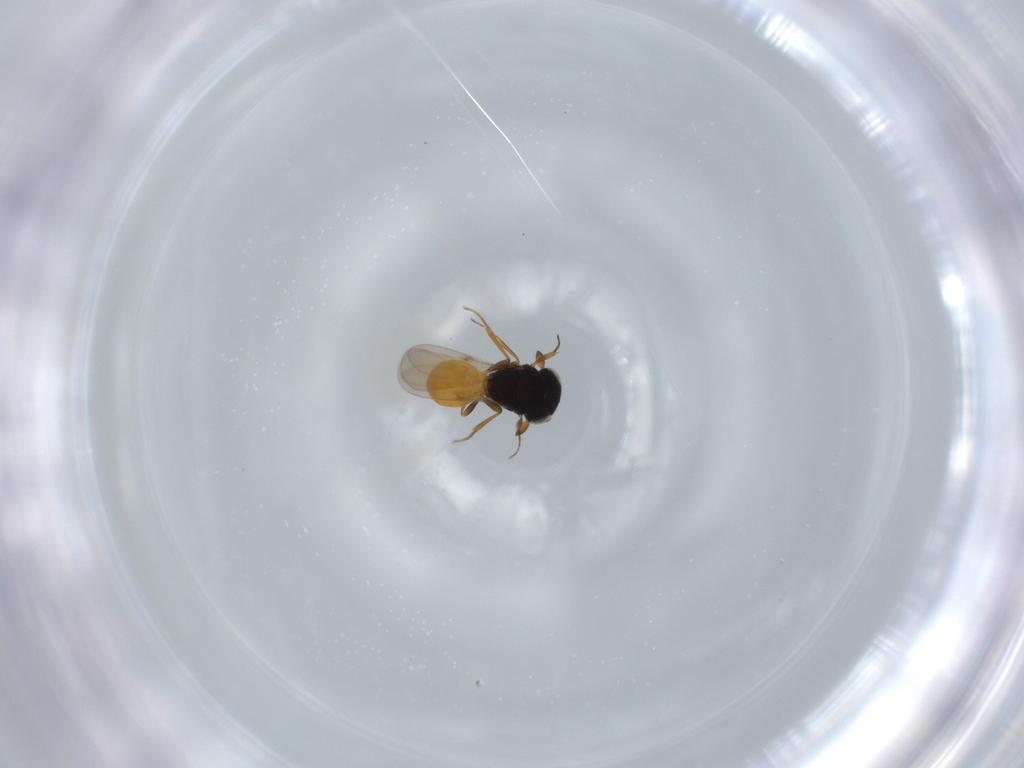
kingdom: Animalia
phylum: Arthropoda
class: Insecta
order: Hymenoptera
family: Scelionidae
